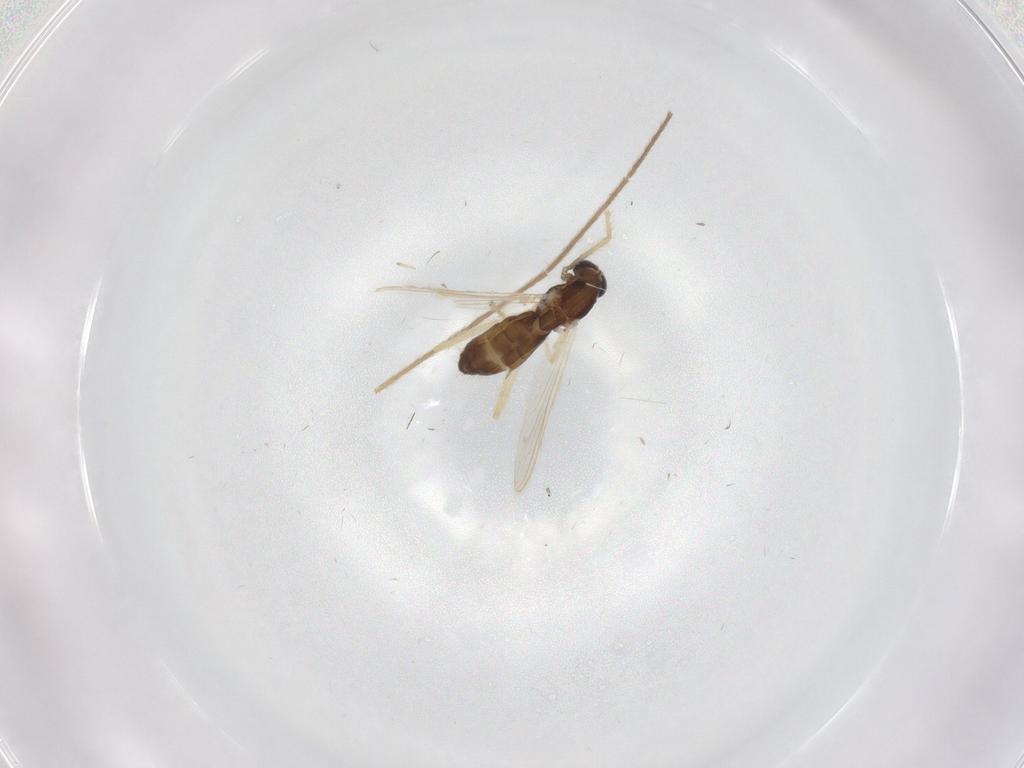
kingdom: Animalia
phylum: Arthropoda
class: Insecta
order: Diptera
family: Chironomidae
